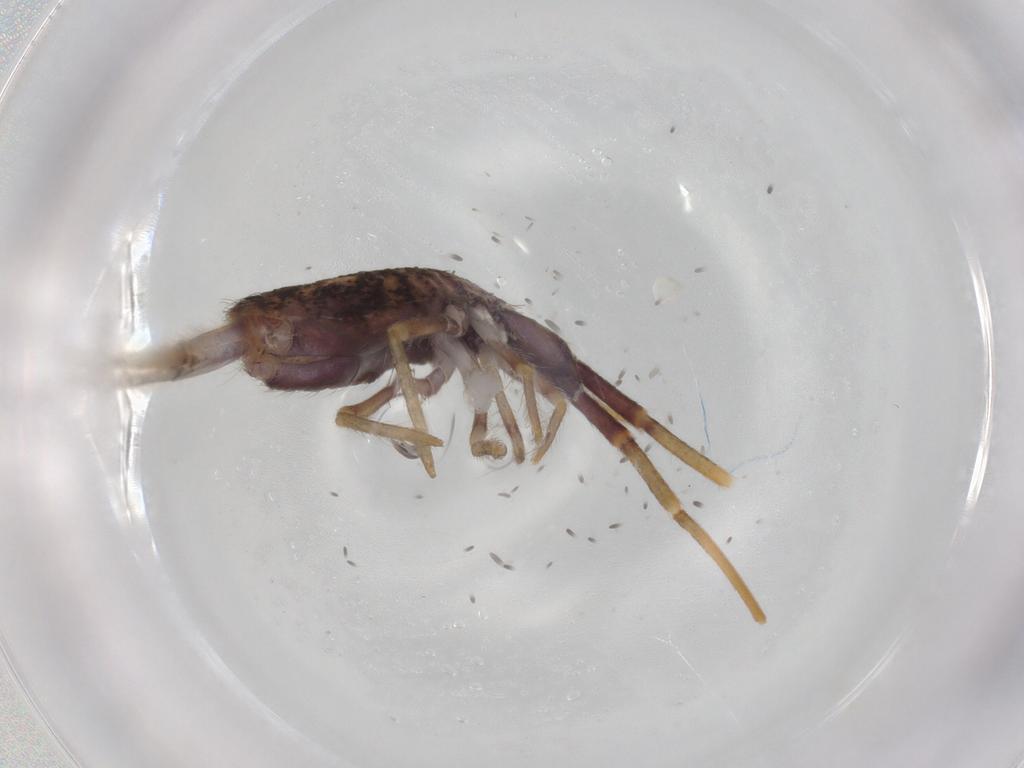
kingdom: Animalia
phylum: Arthropoda
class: Collembola
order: Entomobryomorpha
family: Entomobryidae
